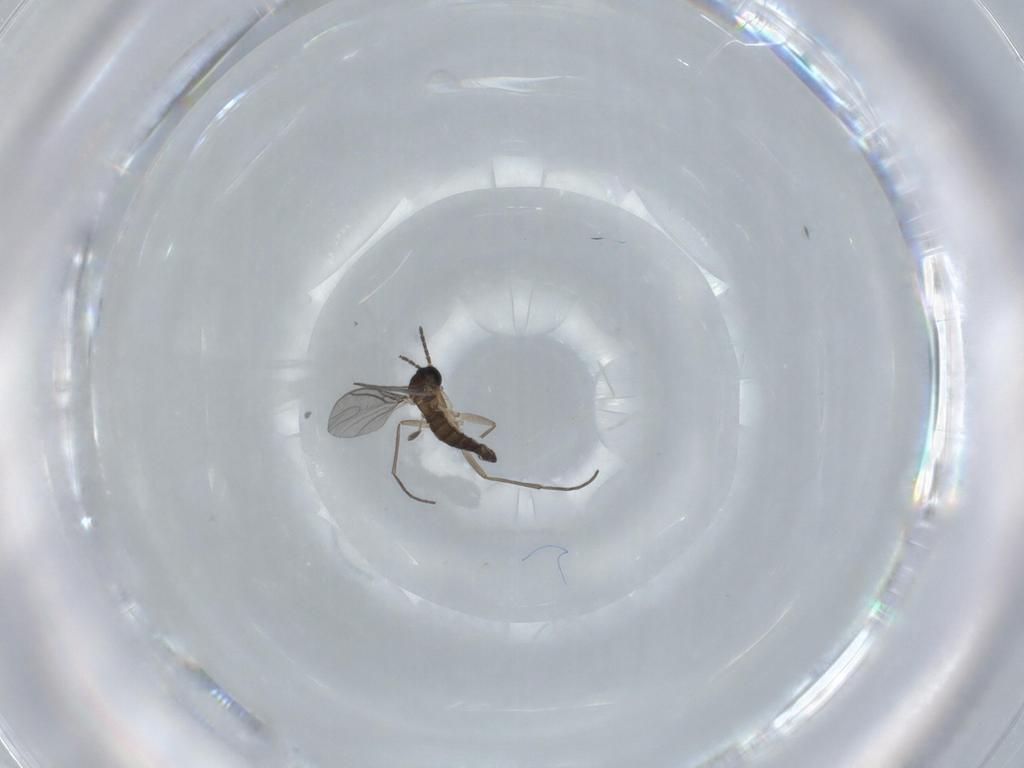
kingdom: Animalia
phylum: Arthropoda
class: Insecta
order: Diptera
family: Sciaridae
